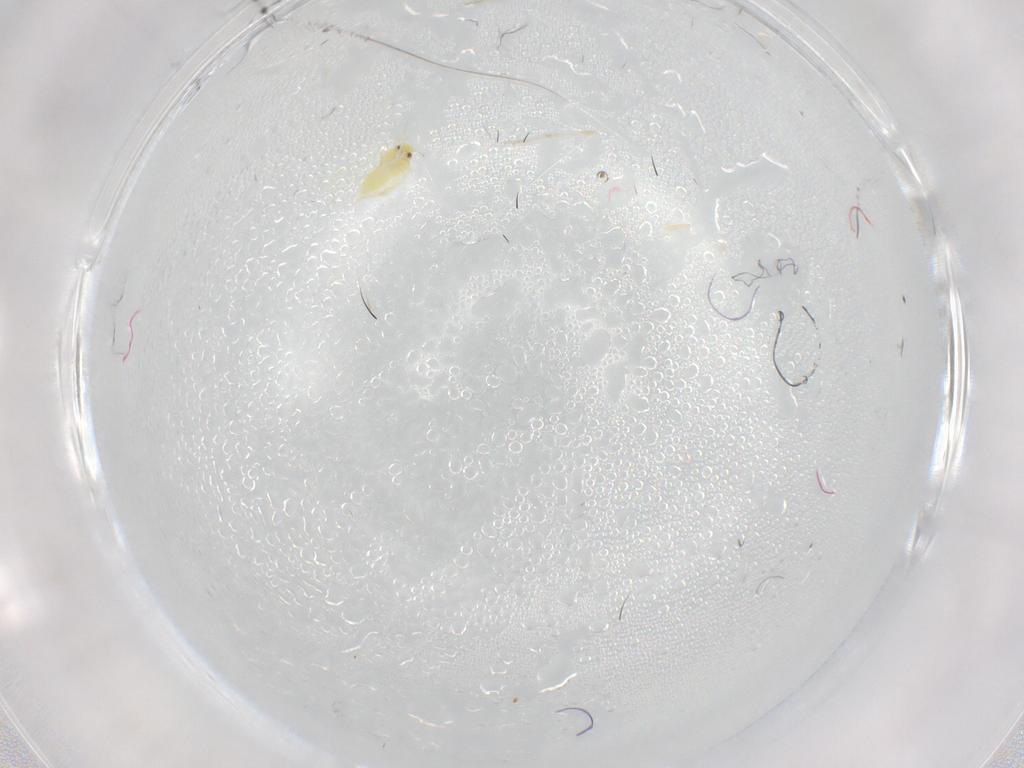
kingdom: Animalia
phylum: Arthropoda
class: Insecta
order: Hemiptera
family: Aleyrodidae
